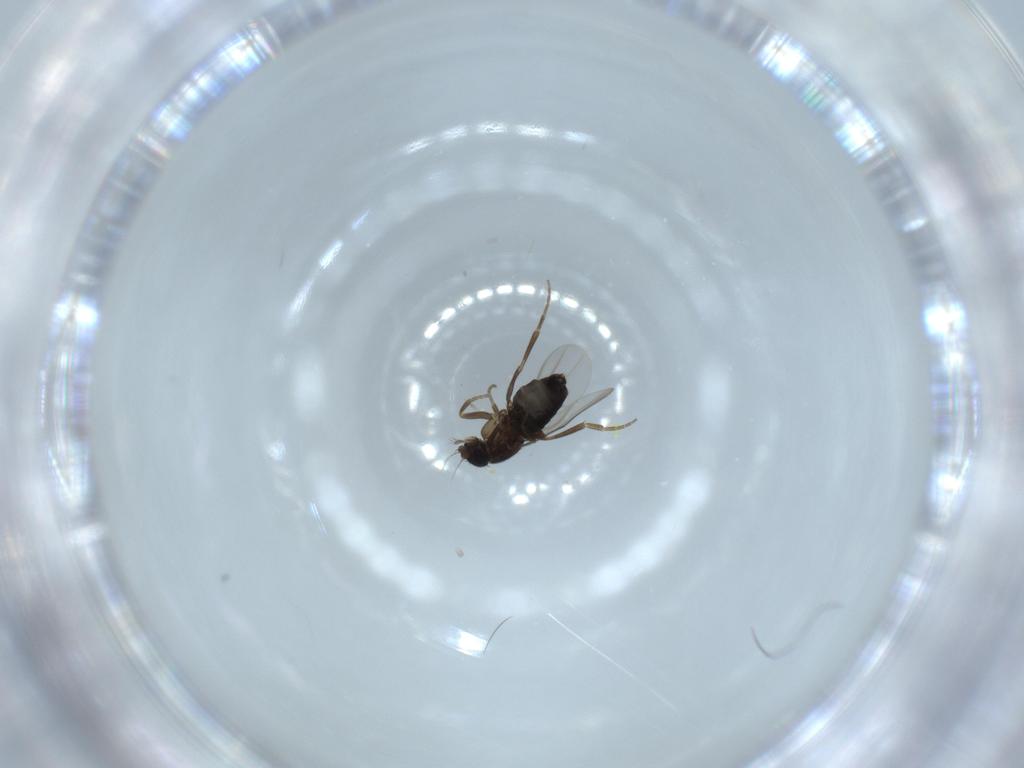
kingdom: Animalia
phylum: Arthropoda
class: Insecta
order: Diptera
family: Phoridae
